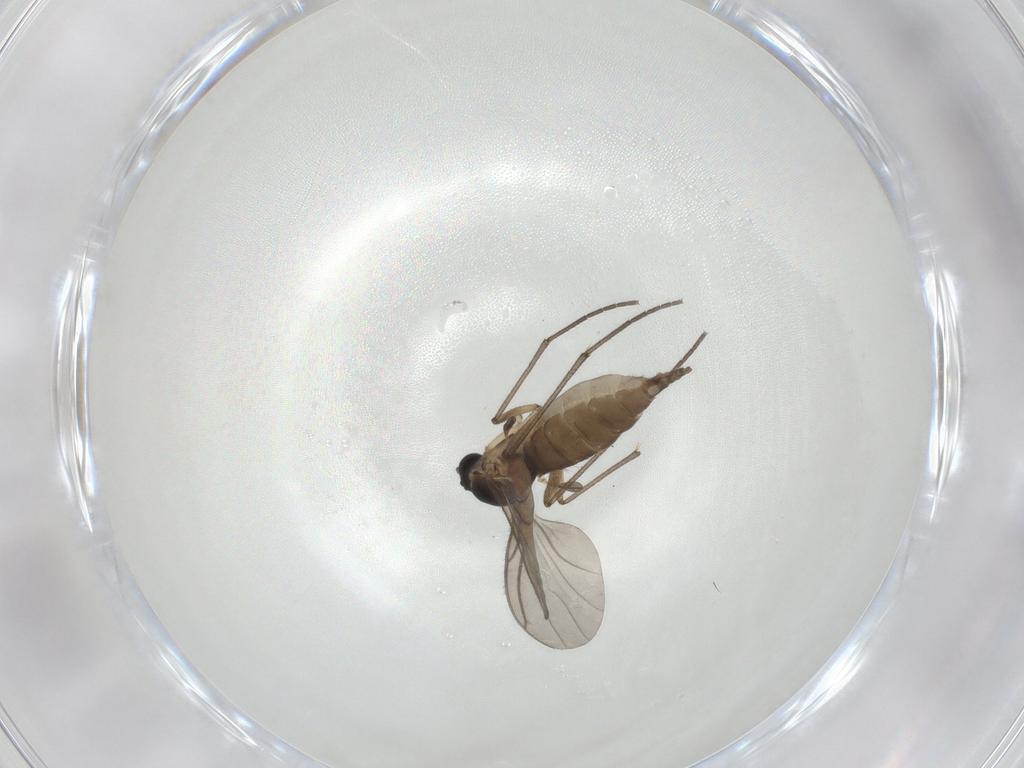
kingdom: Animalia
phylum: Arthropoda
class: Insecta
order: Diptera
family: Sciaridae
